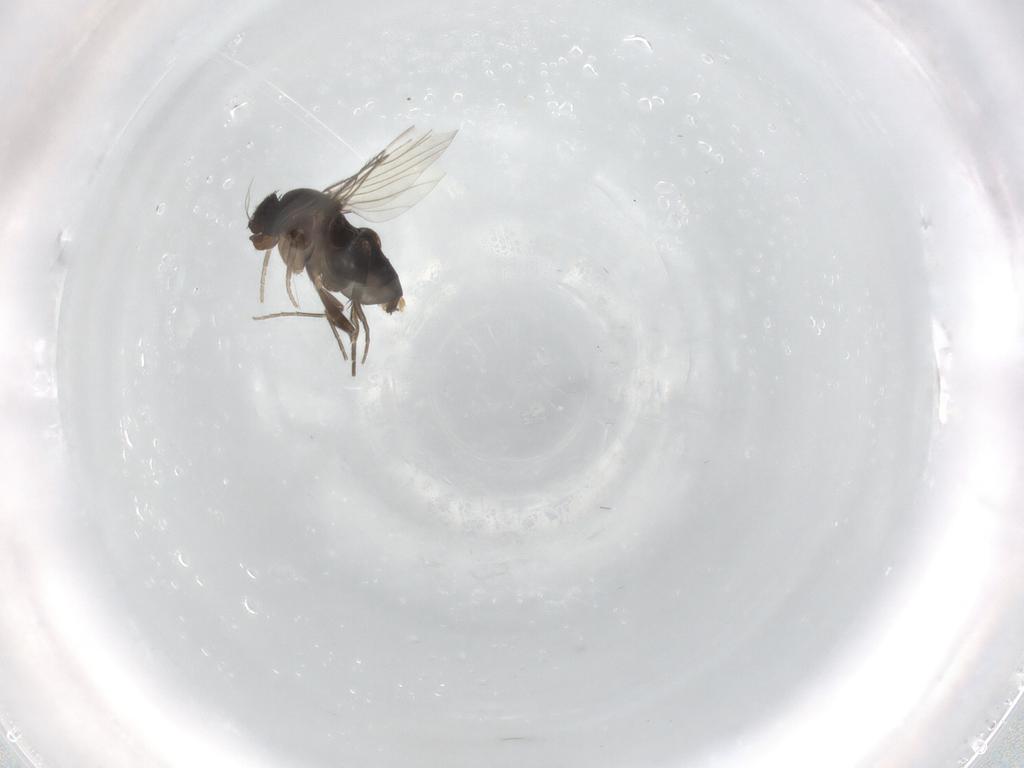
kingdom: Animalia
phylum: Arthropoda
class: Insecta
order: Diptera
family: Phoridae
